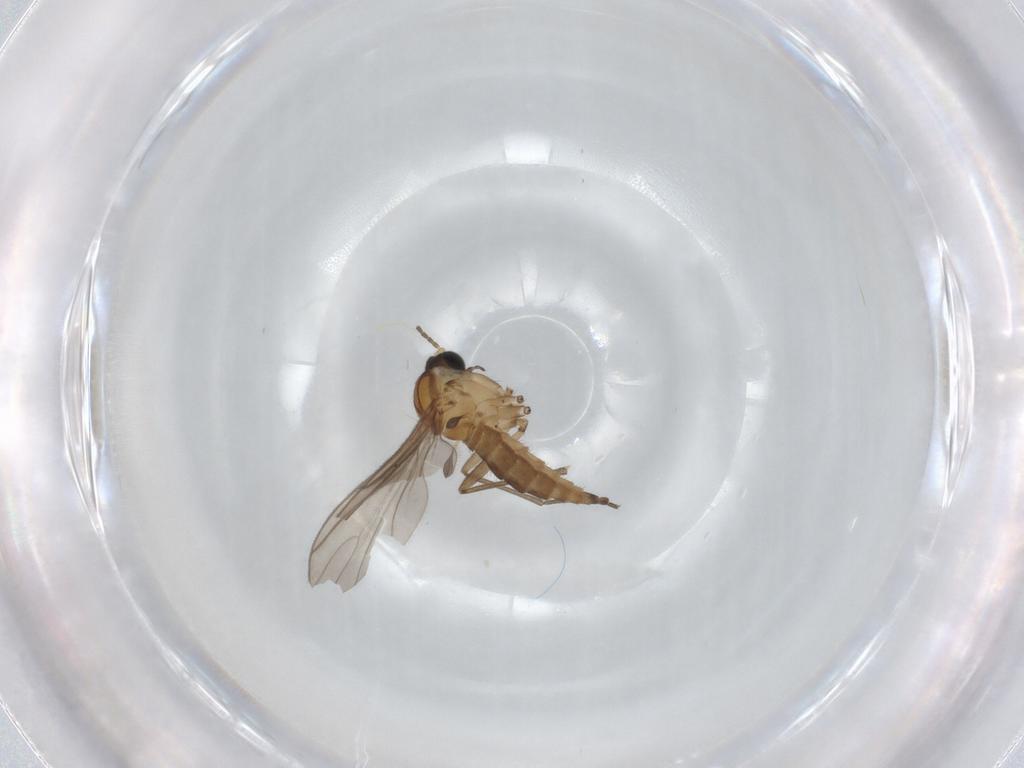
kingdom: Animalia
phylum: Arthropoda
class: Insecta
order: Diptera
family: Sciaridae
